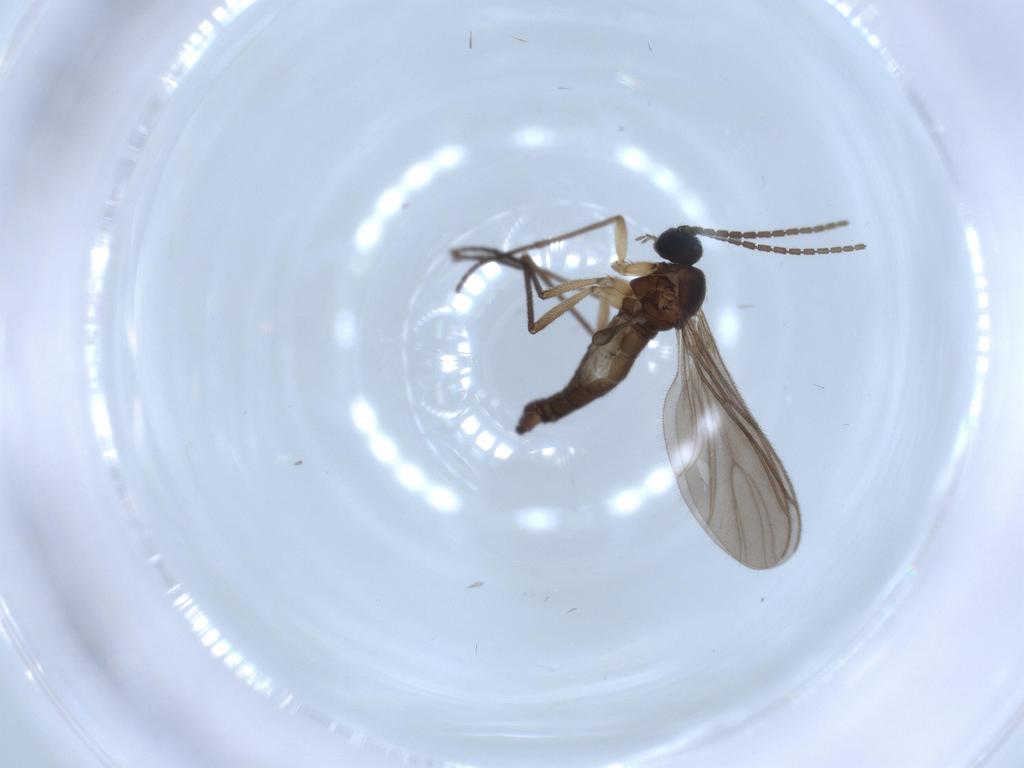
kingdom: Animalia
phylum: Arthropoda
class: Insecta
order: Diptera
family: Sciaridae
